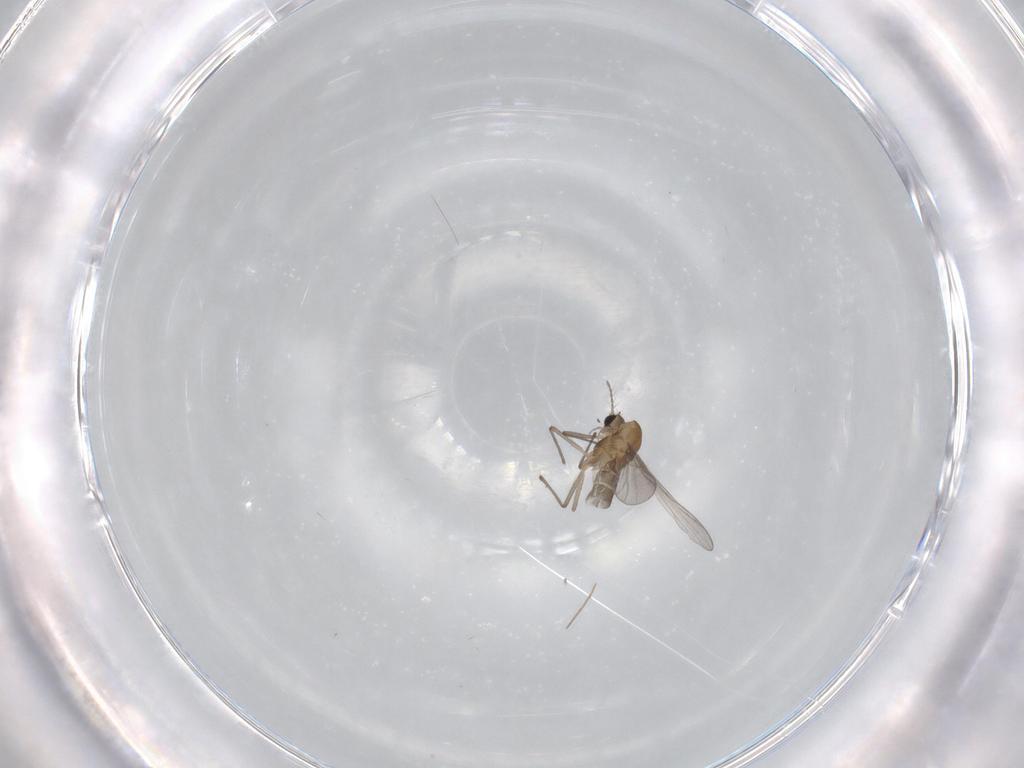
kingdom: Animalia
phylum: Arthropoda
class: Insecta
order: Diptera
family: Chironomidae
